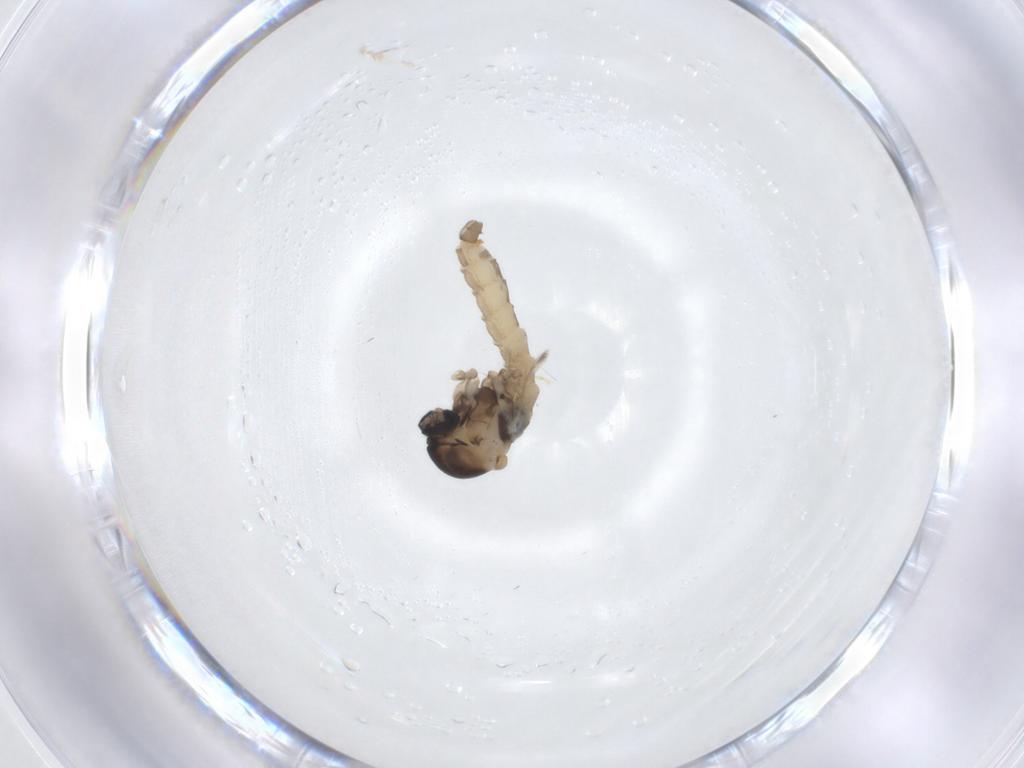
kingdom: Animalia
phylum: Arthropoda
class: Insecta
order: Diptera
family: Cecidomyiidae
